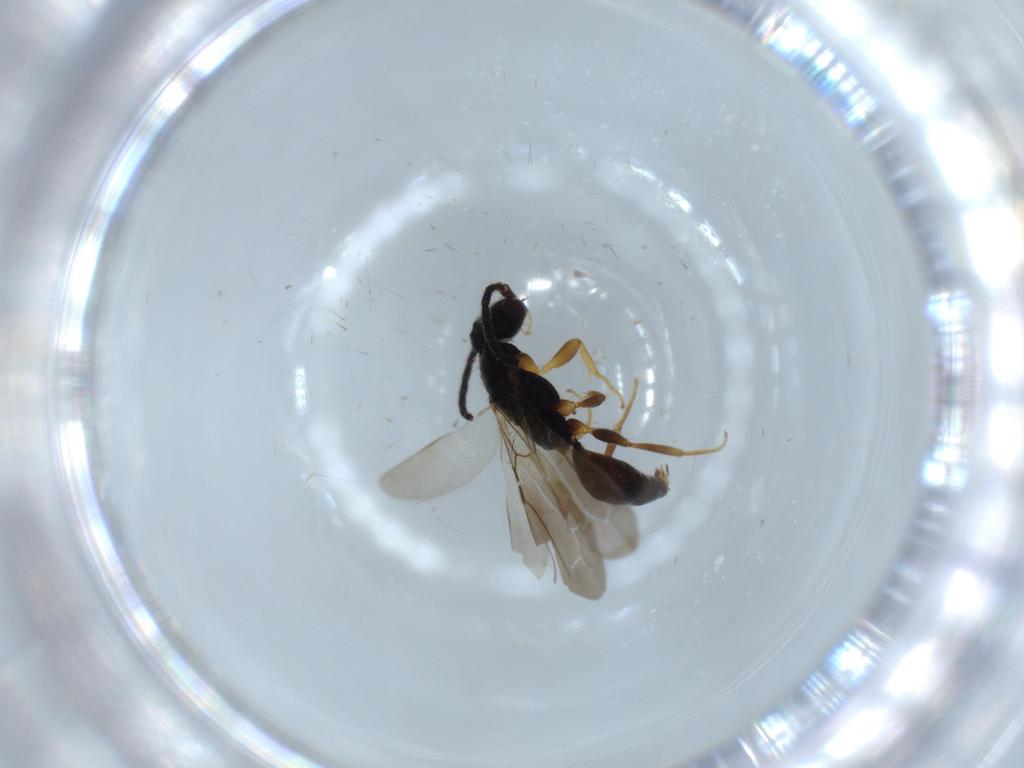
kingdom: Animalia
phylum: Arthropoda
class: Insecta
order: Hymenoptera
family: Bethylidae
